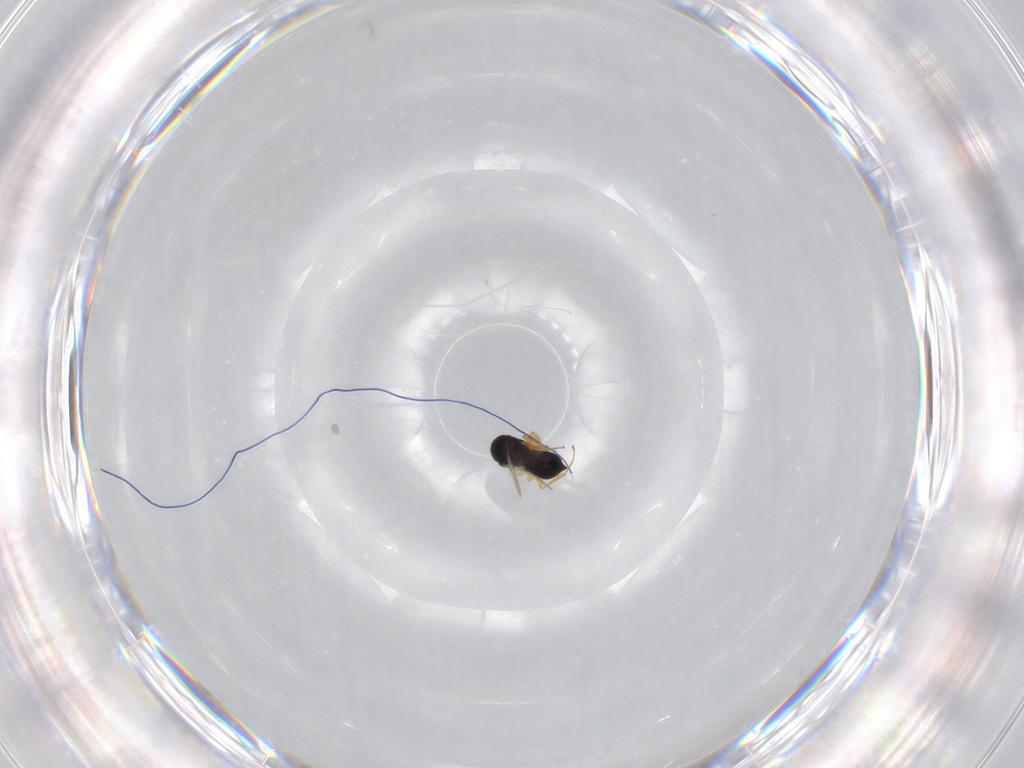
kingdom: Animalia
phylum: Arthropoda
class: Insecta
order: Hymenoptera
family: Scelionidae
